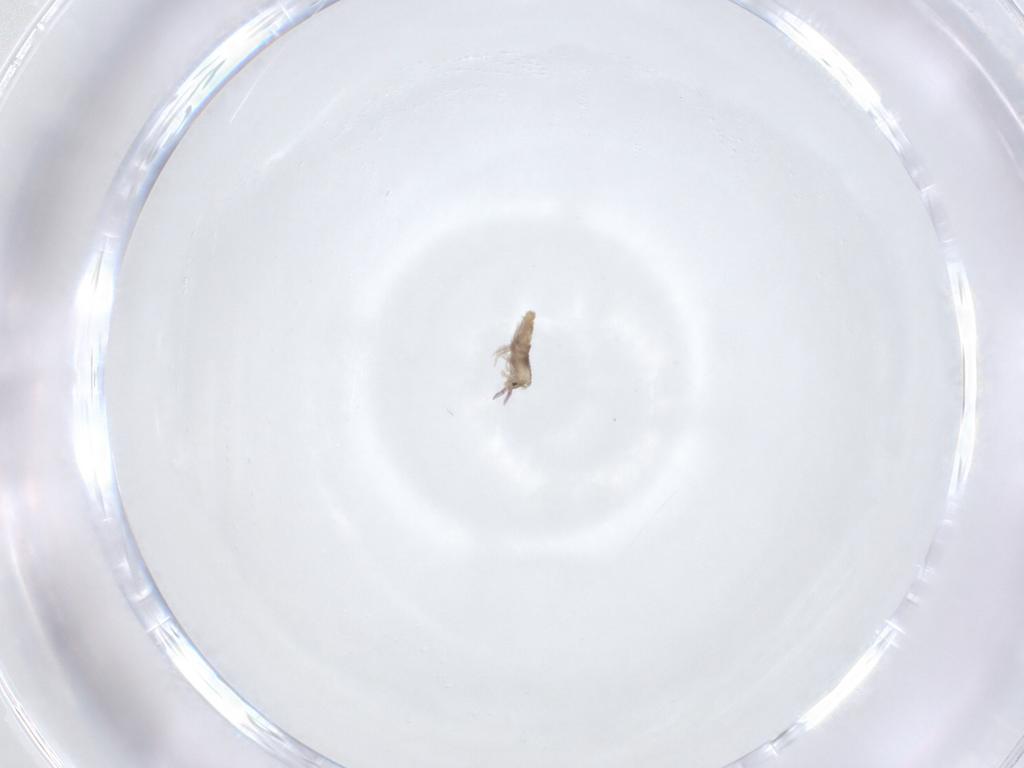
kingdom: Animalia
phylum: Arthropoda
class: Collembola
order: Entomobryomorpha
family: Entomobryidae
